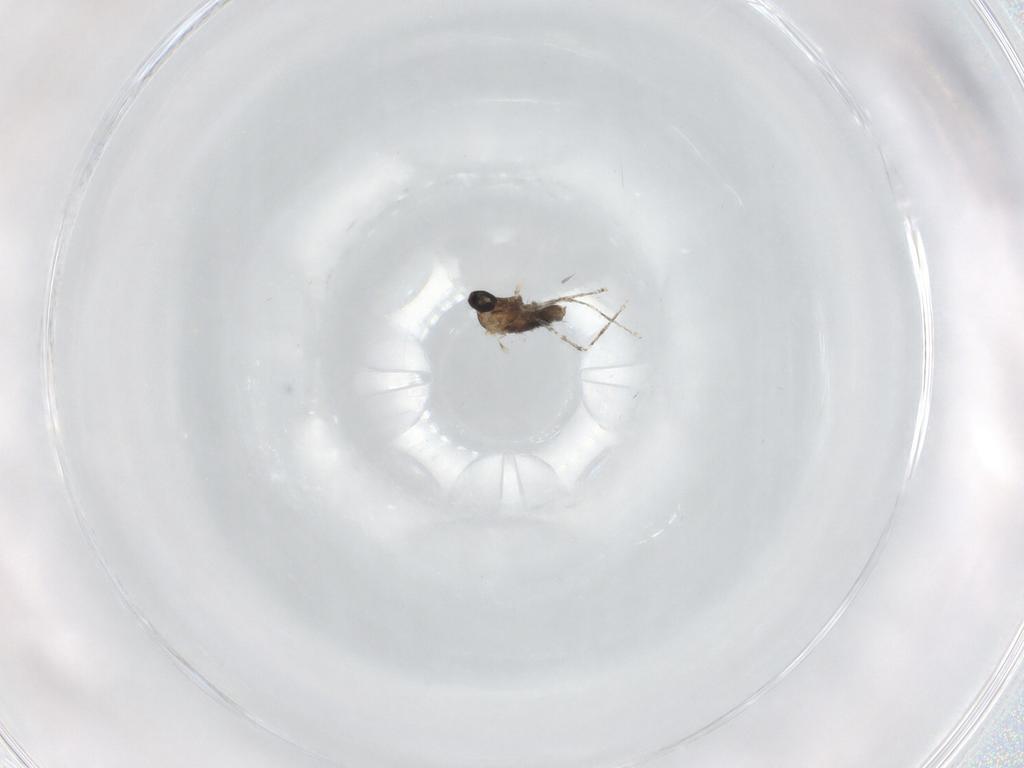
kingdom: Animalia
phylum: Arthropoda
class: Insecta
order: Diptera
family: Cecidomyiidae
